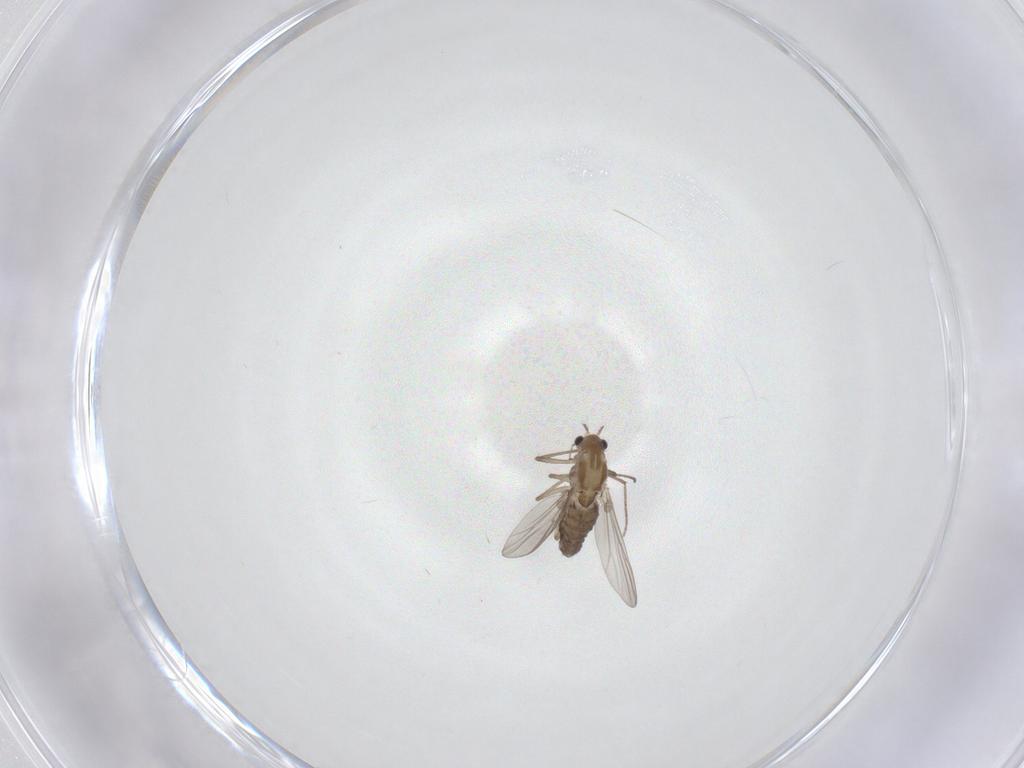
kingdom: Animalia
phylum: Arthropoda
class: Insecta
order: Diptera
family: Chironomidae
